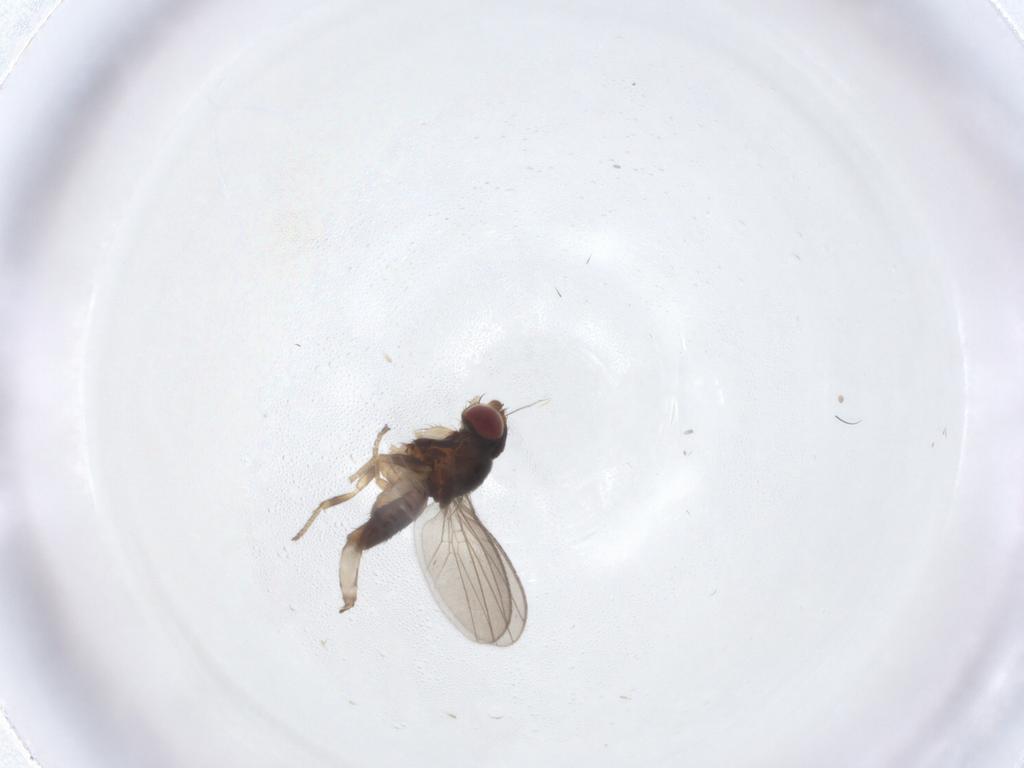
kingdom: Animalia
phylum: Arthropoda
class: Insecta
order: Diptera
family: Milichiidae
